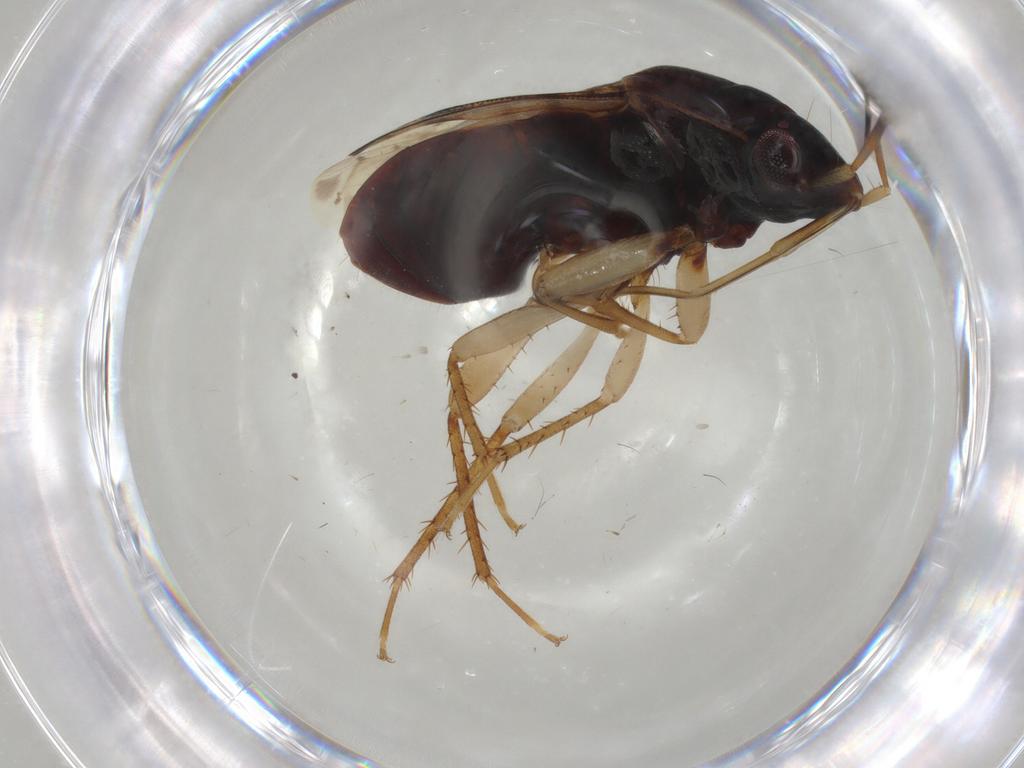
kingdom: Animalia
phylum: Arthropoda
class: Insecta
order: Hemiptera
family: Rhyparochromidae
